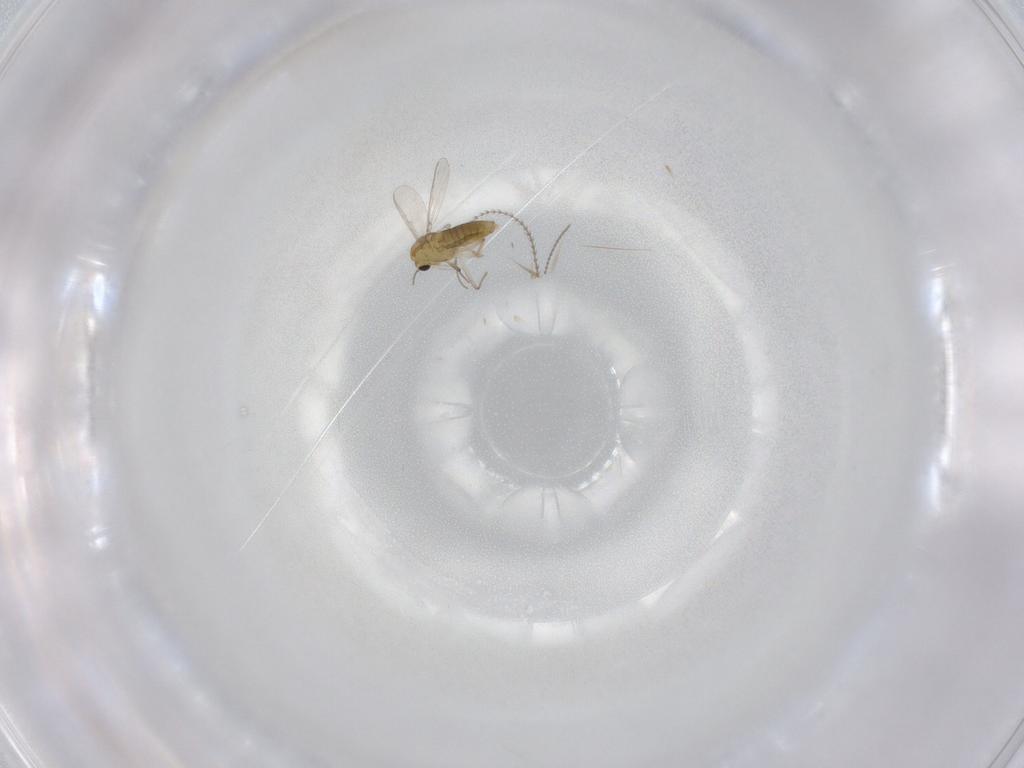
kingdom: Animalia
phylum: Arthropoda
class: Insecta
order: Diptera
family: Chironomidae
